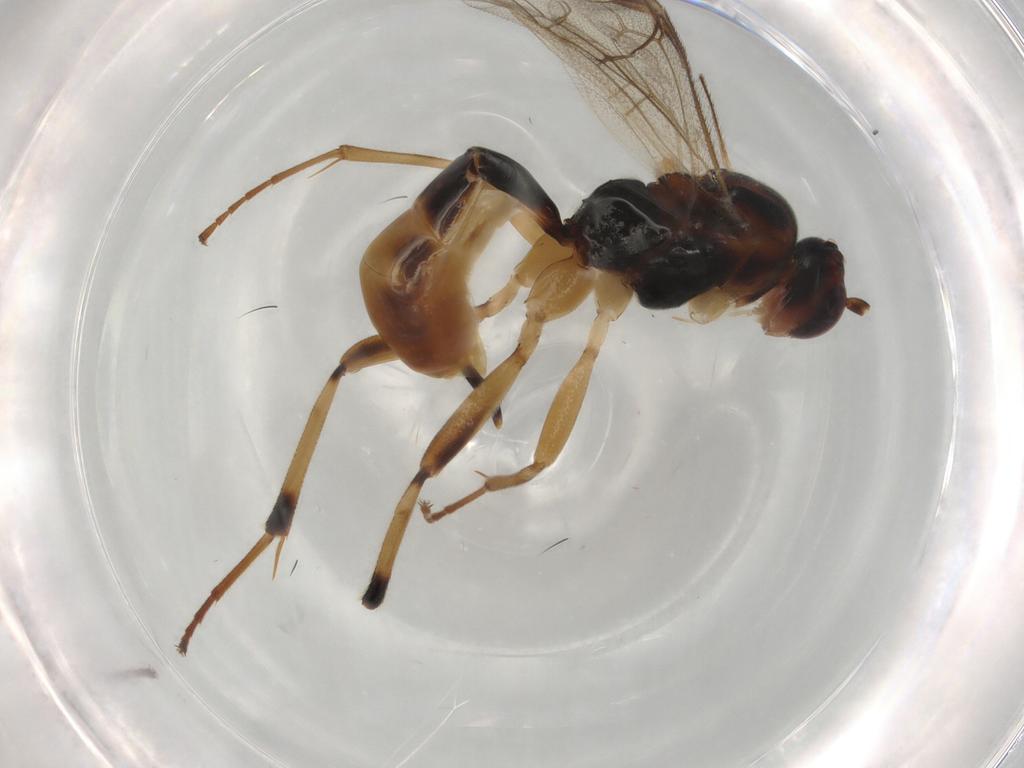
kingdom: Animalia
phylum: Arthropoda
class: Insecta
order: Hymenoptera
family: Ichneumonidae
